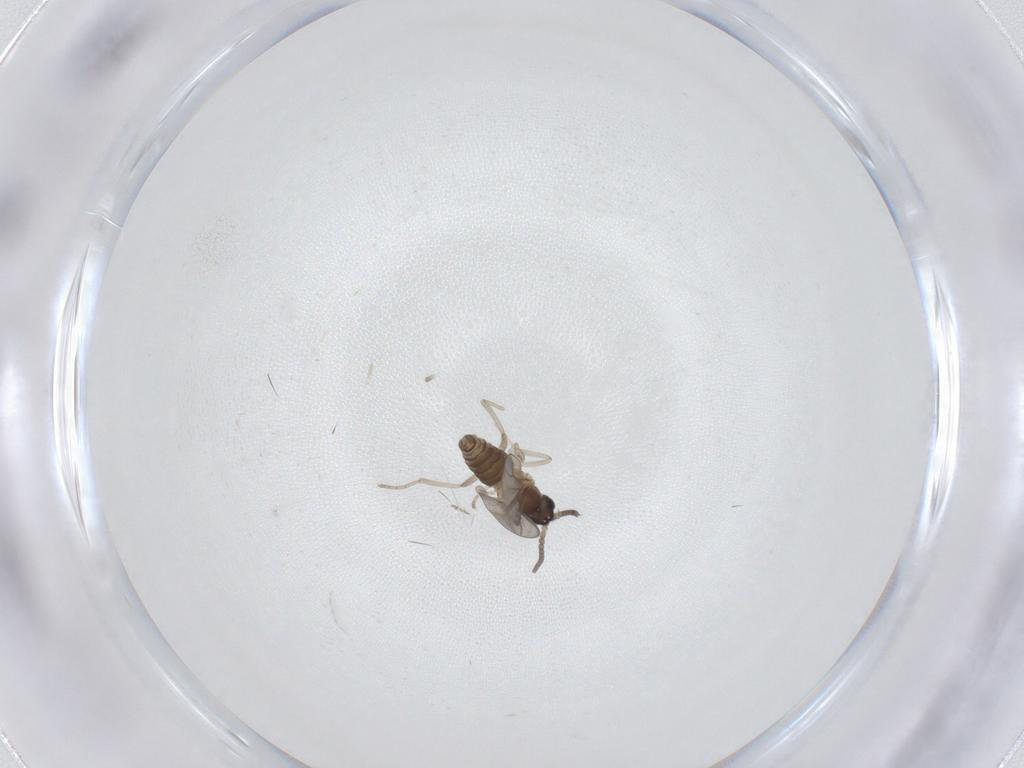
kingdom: Animalia
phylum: Arthropoda
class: Insecta
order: Diptera
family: Cecidomyiidae
